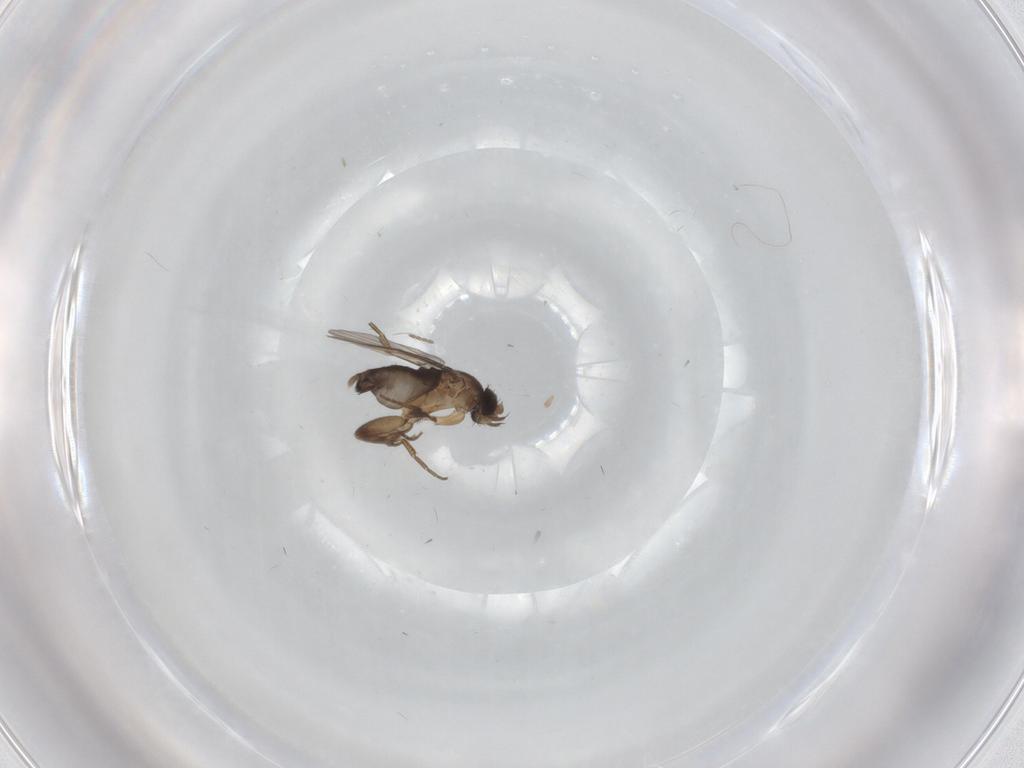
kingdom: Animalia
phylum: Arthropoda
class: Insecta
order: Diptera
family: Phoridae
